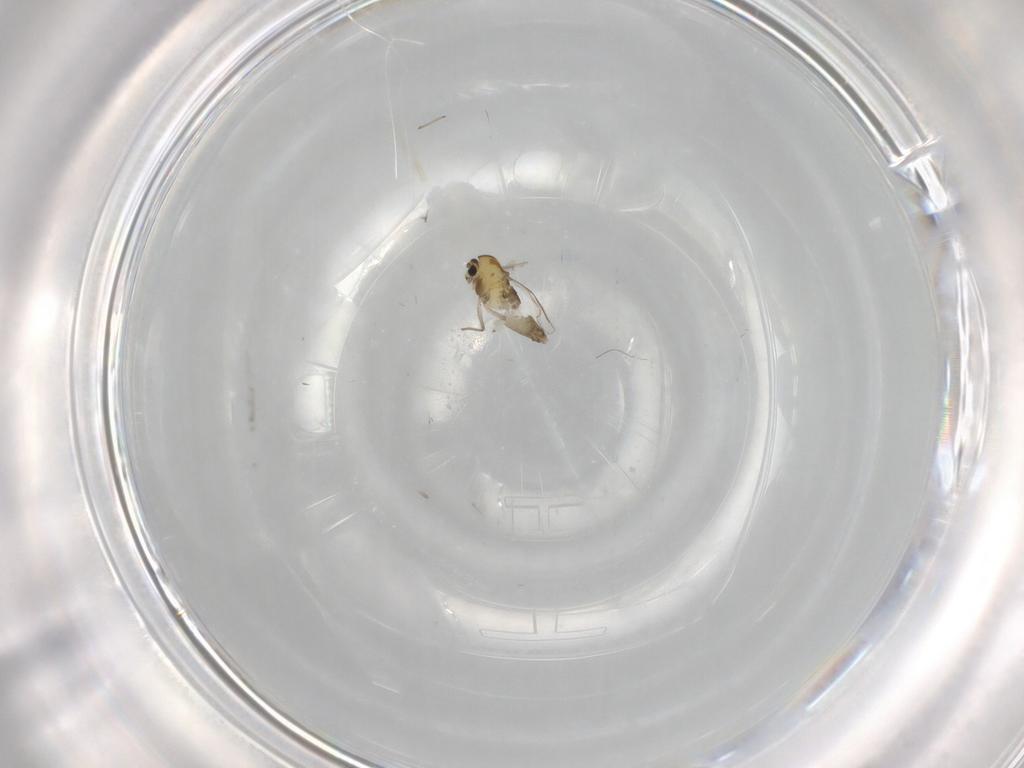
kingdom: Animalia
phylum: Arthropoda
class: Insecta
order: Diptera
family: Chironomidae
